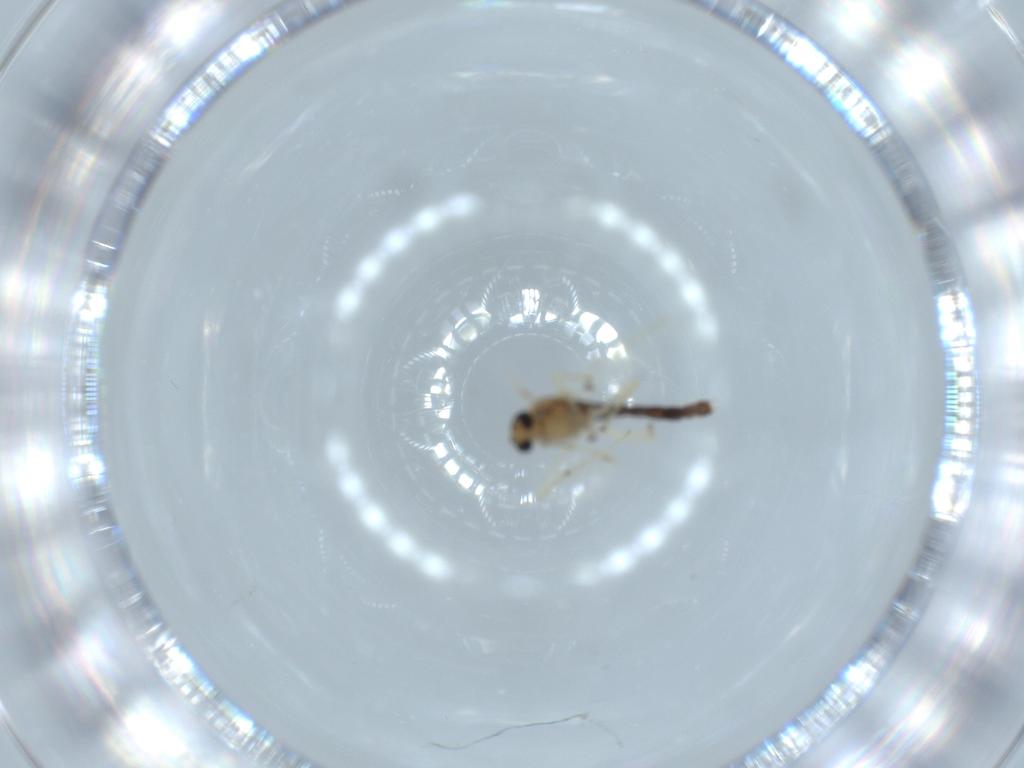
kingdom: Animalia
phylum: Arthropoda
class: Insecta
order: Diptera
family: Chironomidae
